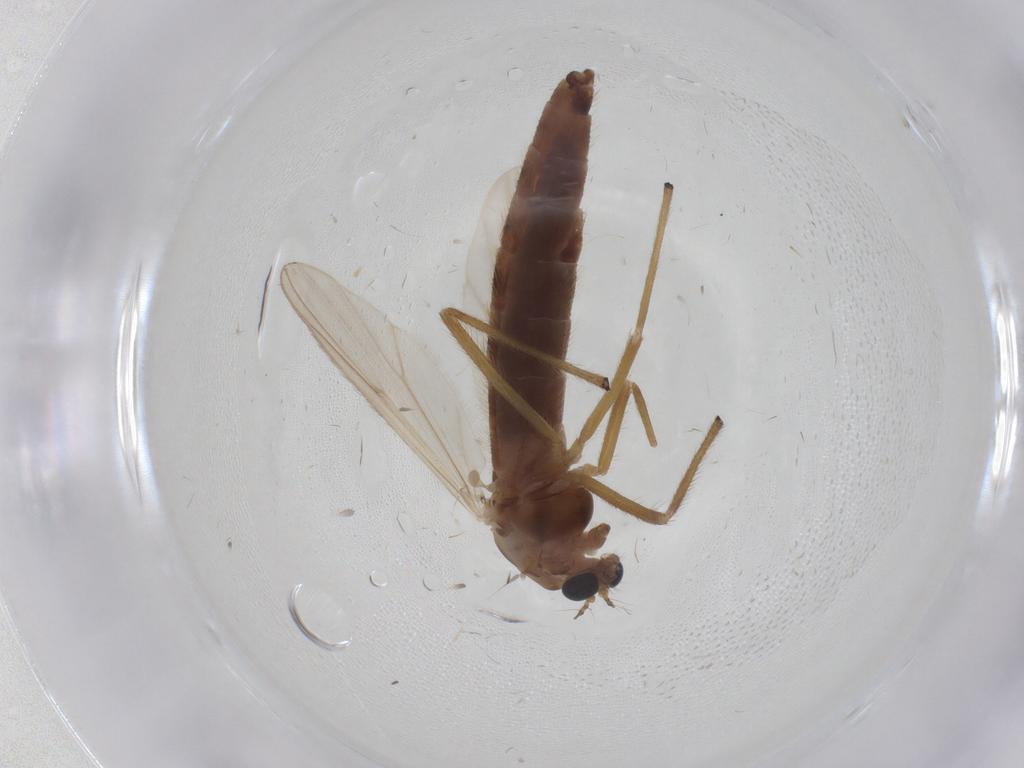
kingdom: Animalia
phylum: Arthropoda
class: Insecta
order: Diptera
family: Chironomidae
